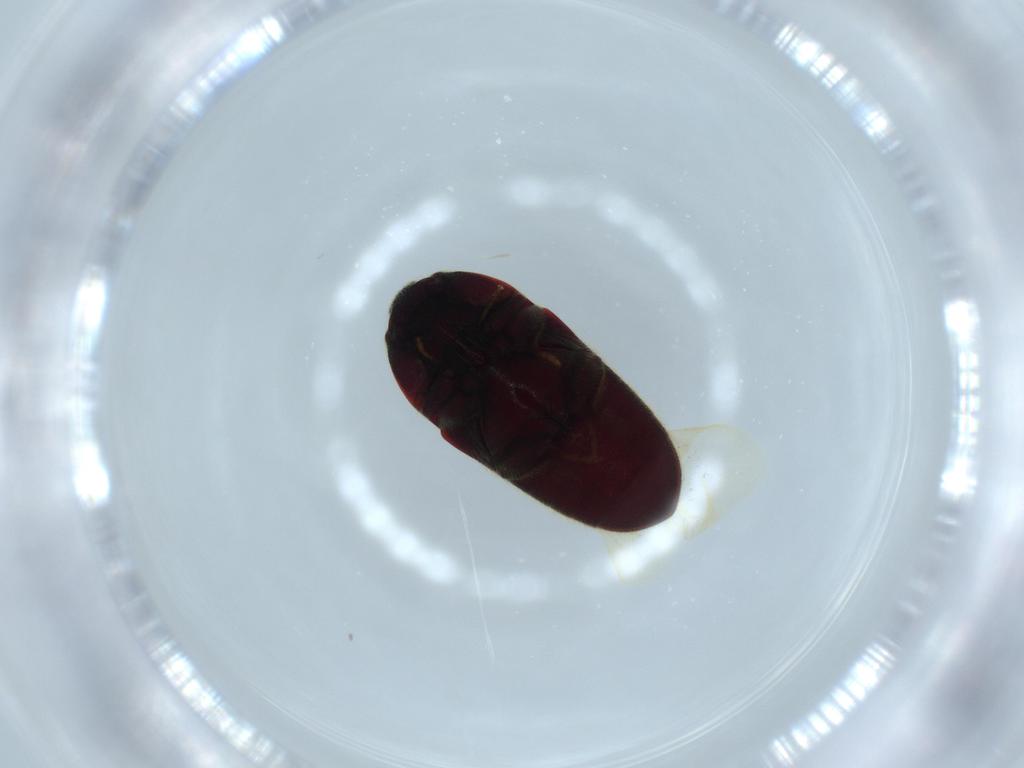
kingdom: Animalia
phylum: Arthropoda
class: Insecta
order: Coleoptera
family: Throscidae
